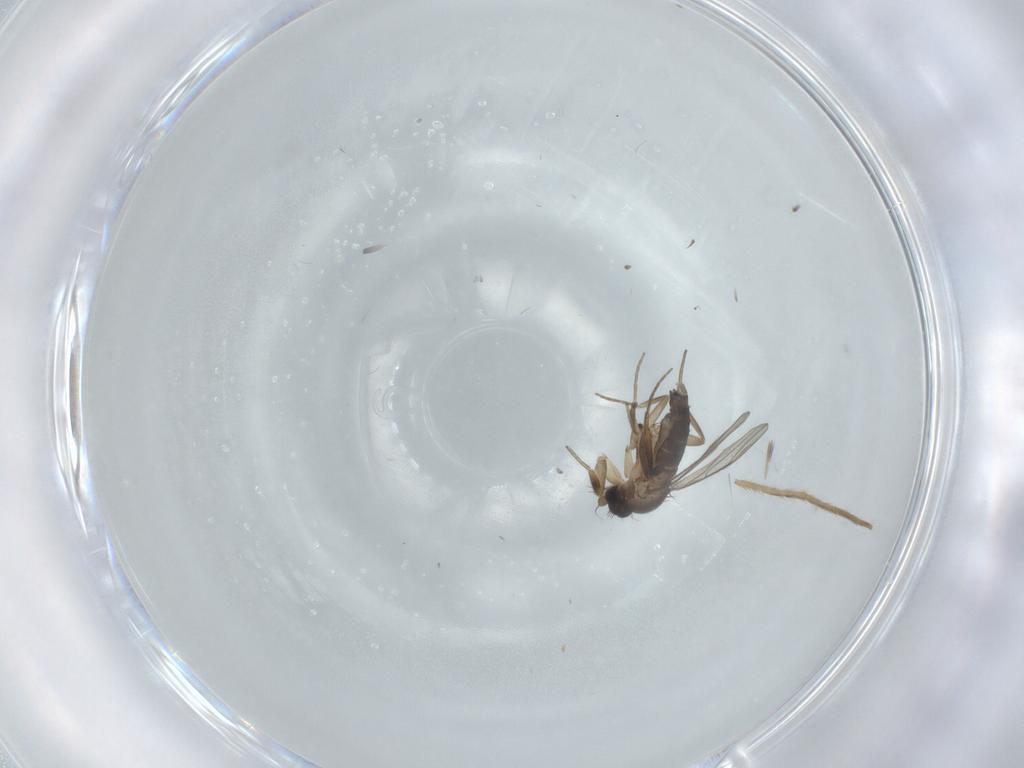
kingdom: Animalia
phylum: Arthropoda
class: Insecta
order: Diptera
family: Phoridae
